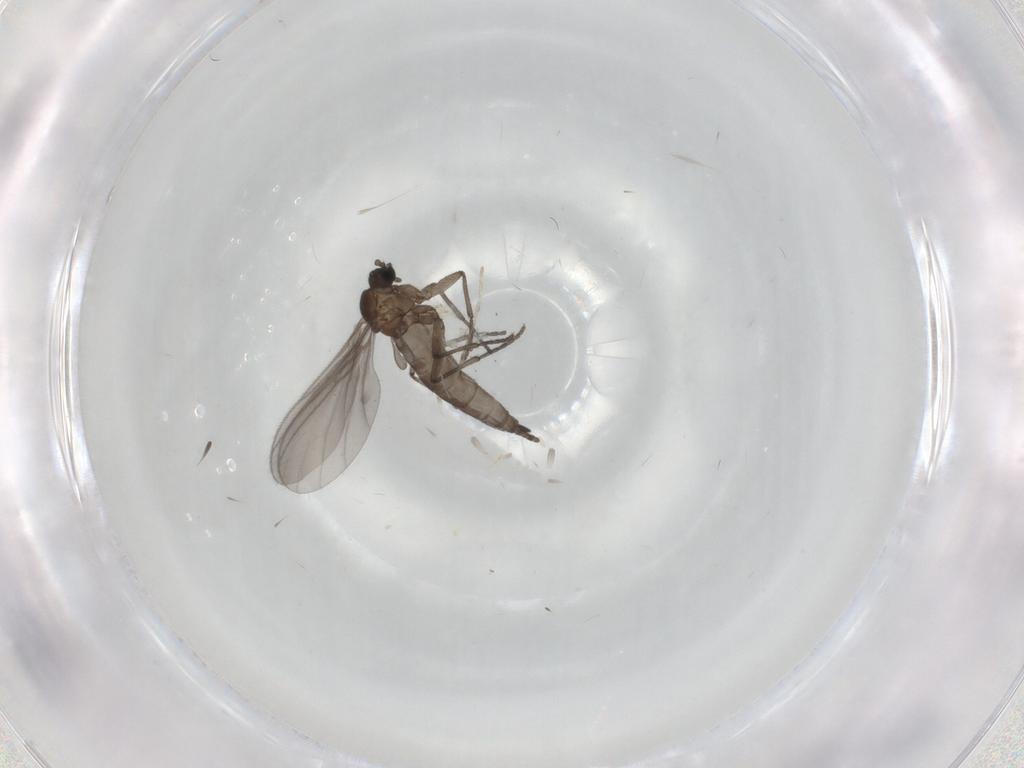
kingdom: Animalia
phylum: Arthropoda
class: Insecta
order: Diptera
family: Sciaridae
